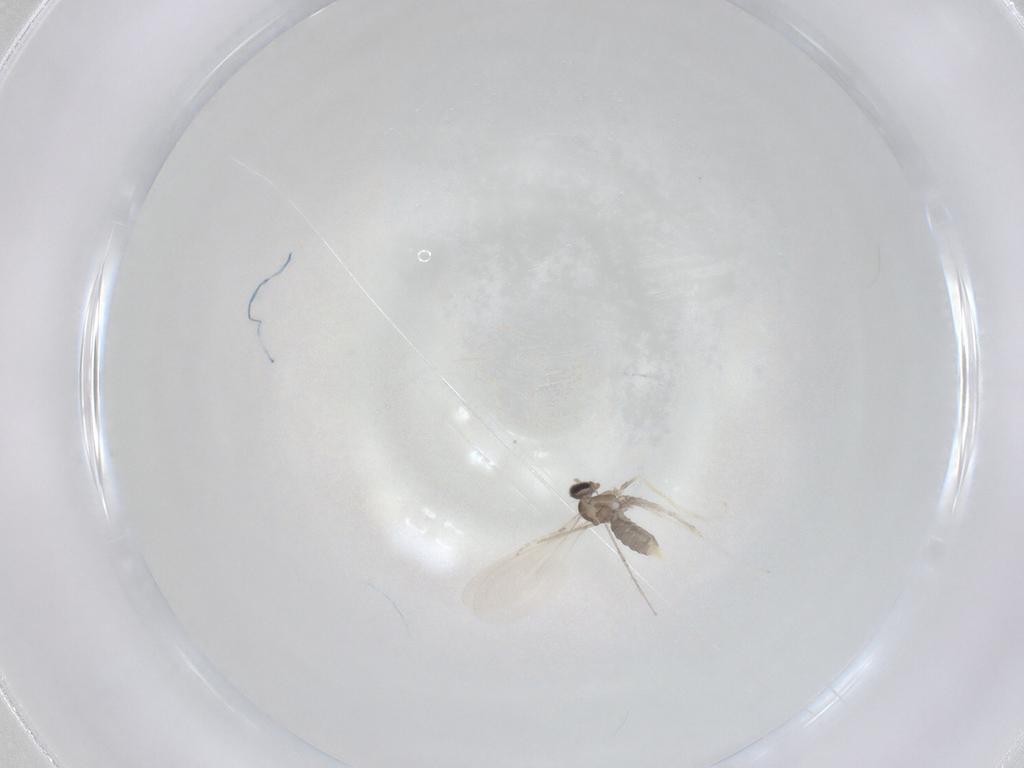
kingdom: Animalia
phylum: Arthropoda
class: Insecta
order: Diptera
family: Cecidomyiidae
